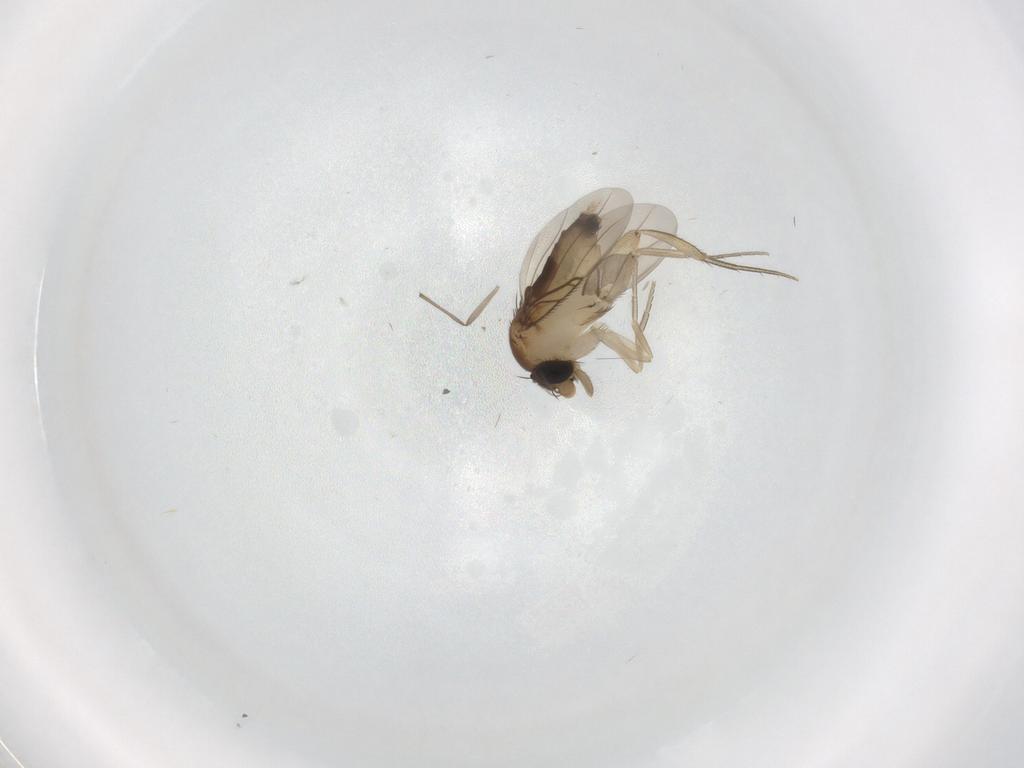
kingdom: Animalia
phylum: Arthropoda
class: Insecta
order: Diptera
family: Phoridae
